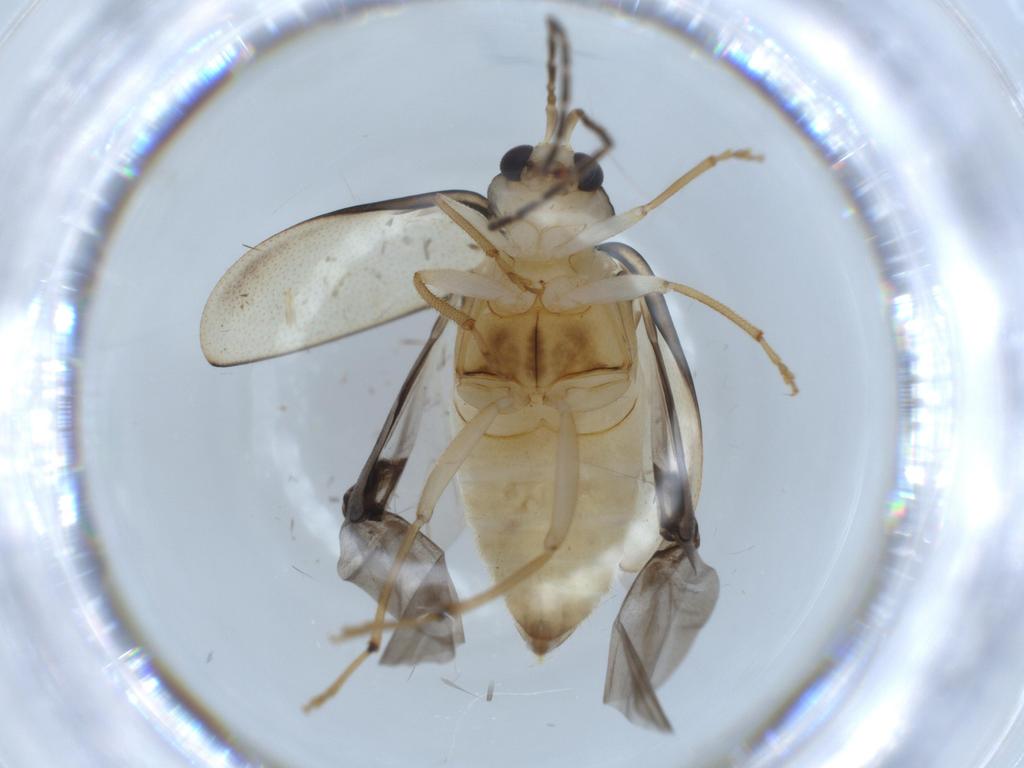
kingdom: Animalia
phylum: Arthropoda
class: Insecta
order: Coleoptera
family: Chrysomelidae
